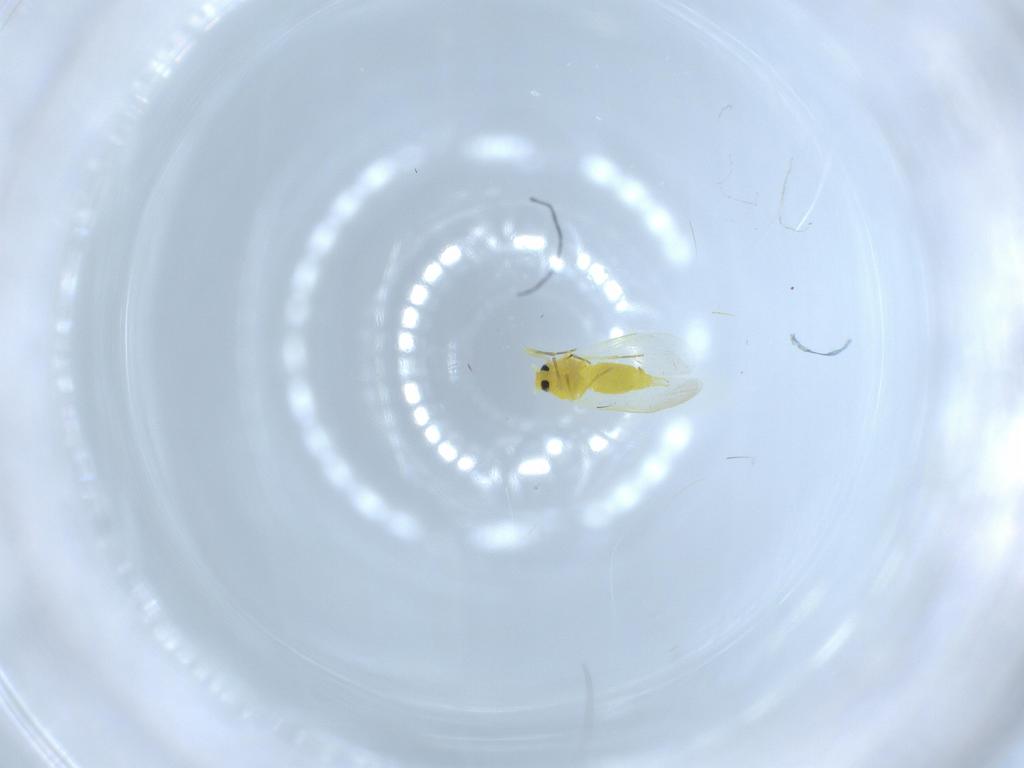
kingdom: Animalia
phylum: Arthropoda
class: Insecta
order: Hemiptera
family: Aleyrodidae
